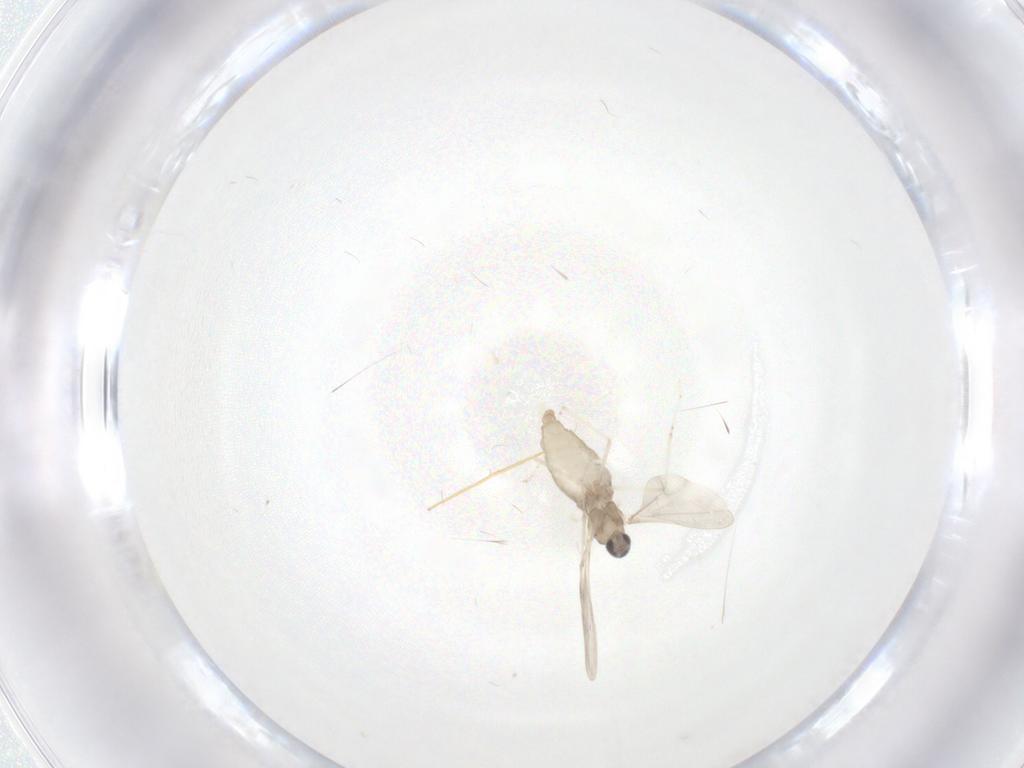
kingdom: Animalia
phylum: Arthropoda
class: Insecta
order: Diptera
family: Cecidomyiidae
